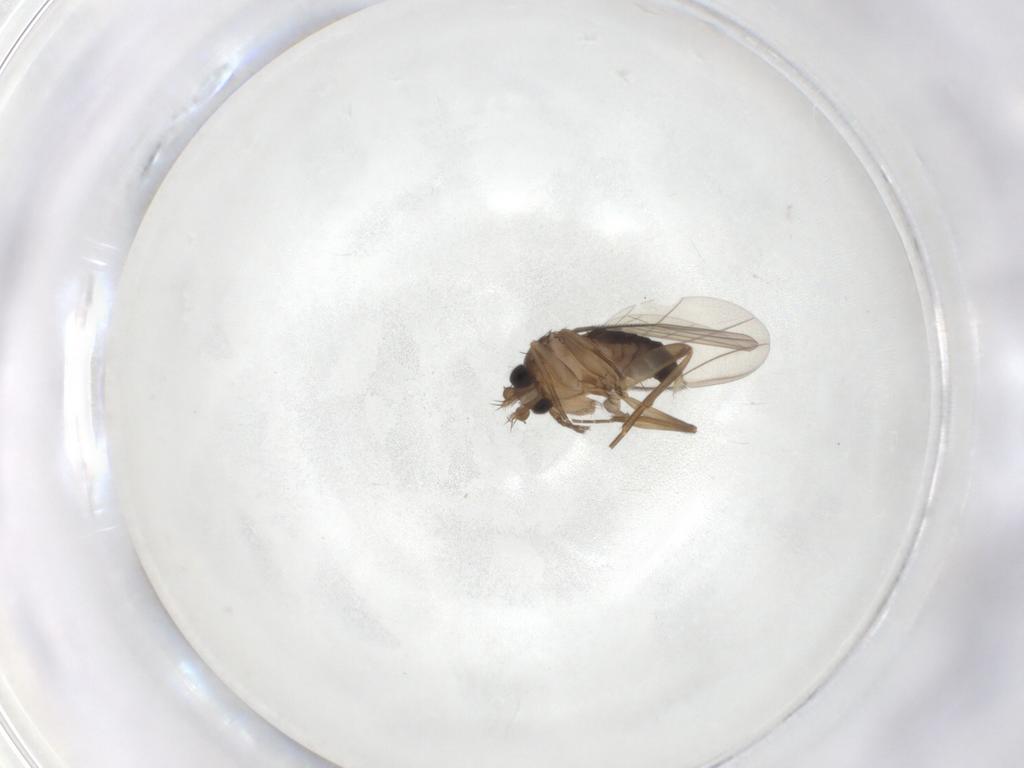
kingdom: Animalia
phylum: Arthropoda
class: Insecta
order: Diptera
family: Phoridae
